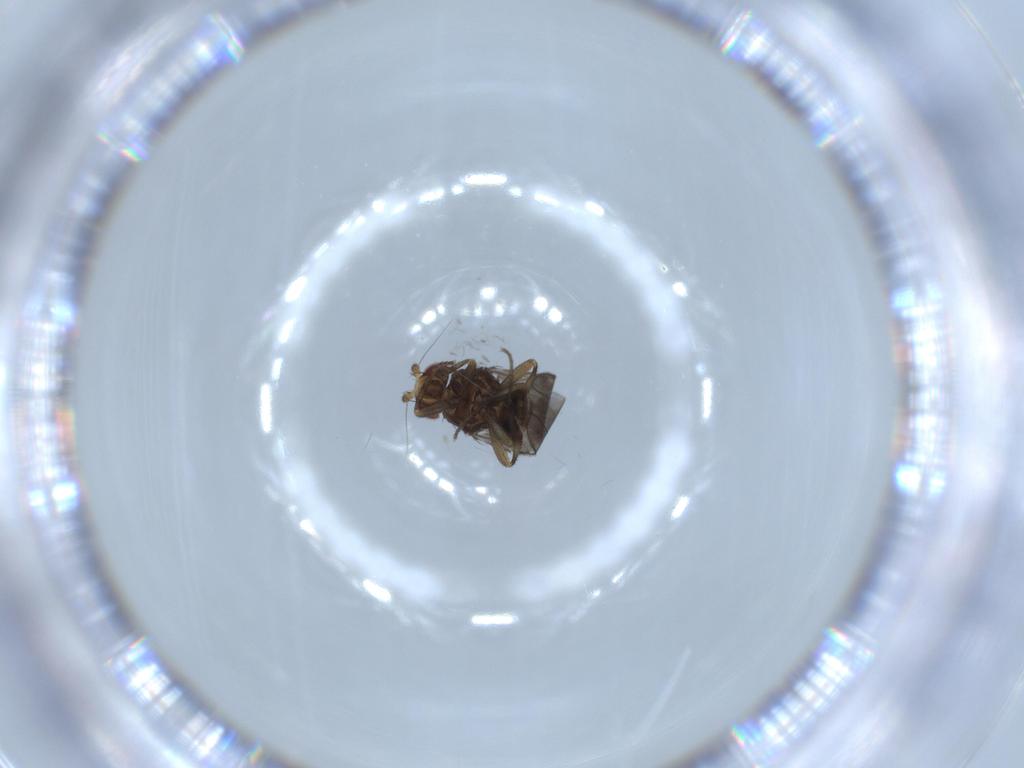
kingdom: Animalia
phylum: Arthropoda
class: Insecta
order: Diptera
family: Sphaeroceridae
